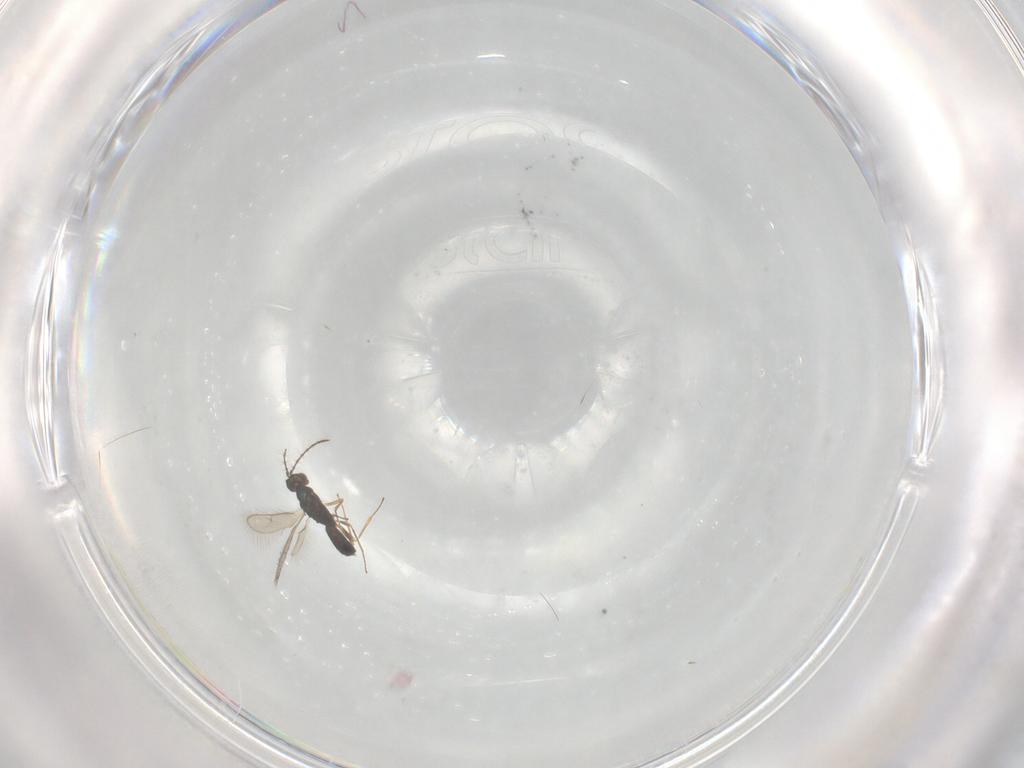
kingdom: Animalia
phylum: Arthropoda
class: Insecta
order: Hymenoptera
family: Pteromalidae
